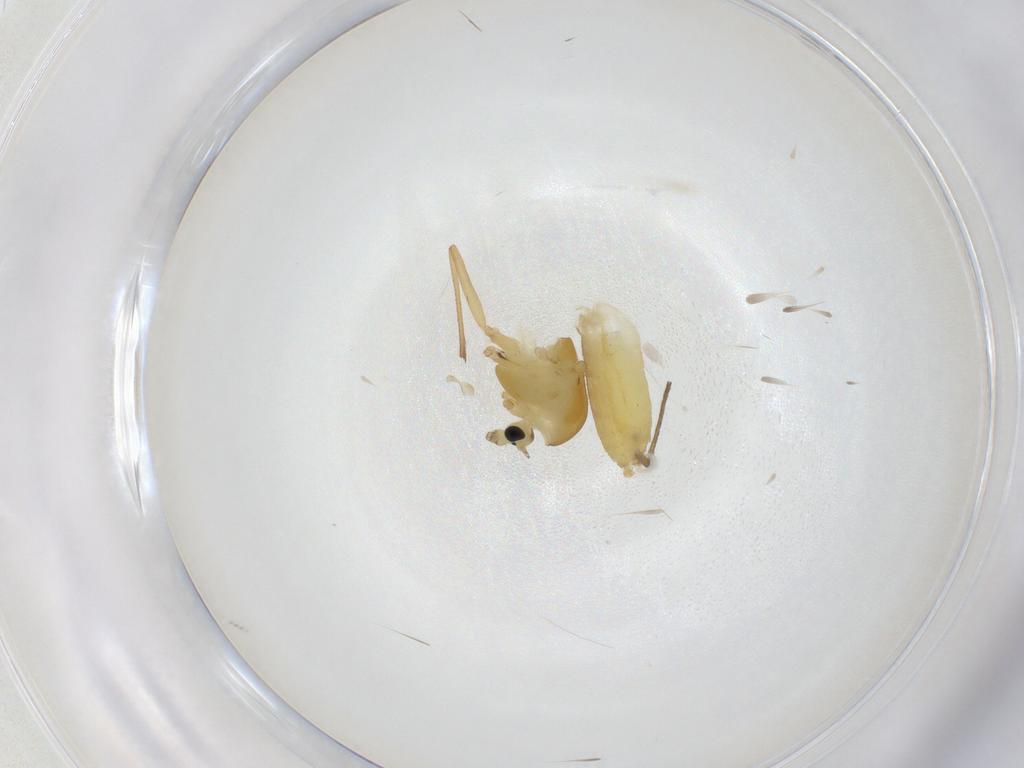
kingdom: Animalia
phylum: Arthropoda
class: Insecta
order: Diptera
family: Chironomidae
